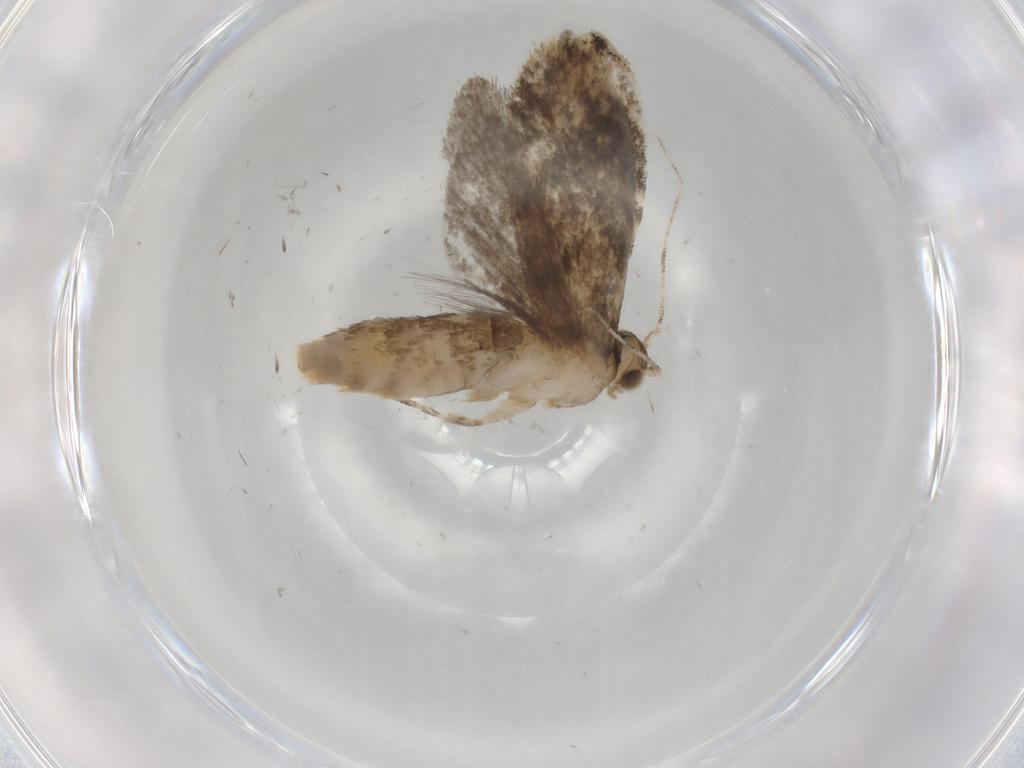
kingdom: Animalia
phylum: Arthropoda
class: Insecta
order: Lepidoptera
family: Tineidae
